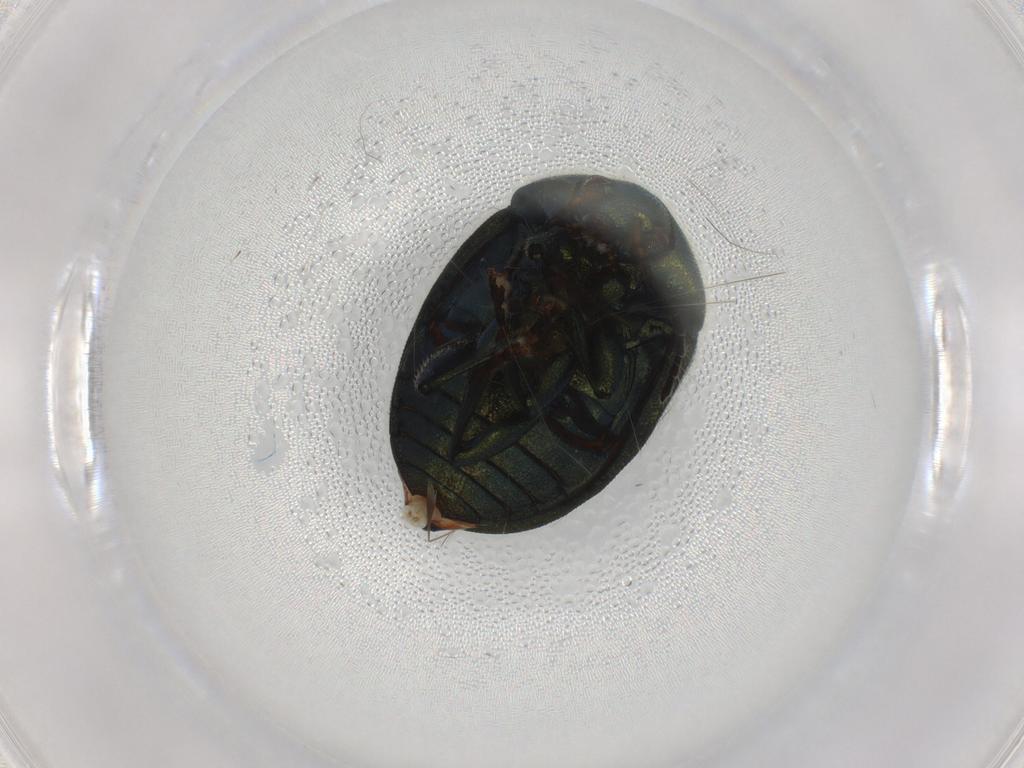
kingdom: Animalia
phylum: Arthropoda
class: Insecta
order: Coleoptera
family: Chrysomelidae
